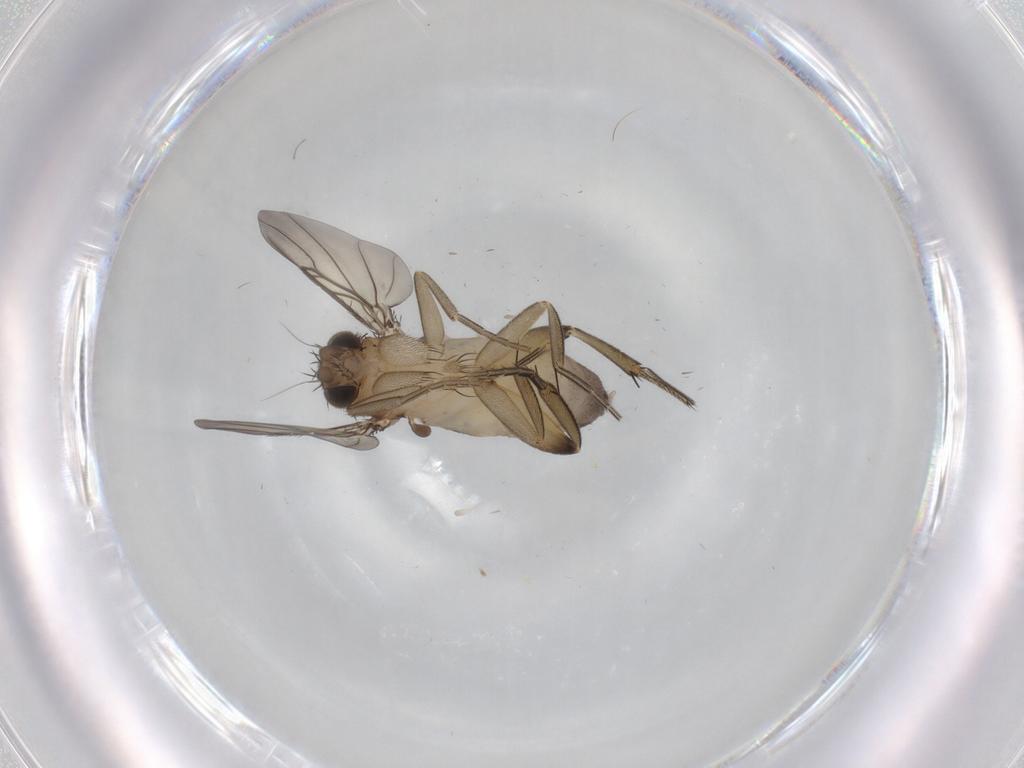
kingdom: Animalia
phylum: Arthropoda
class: Insecta
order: Diptera
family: Phoridae
